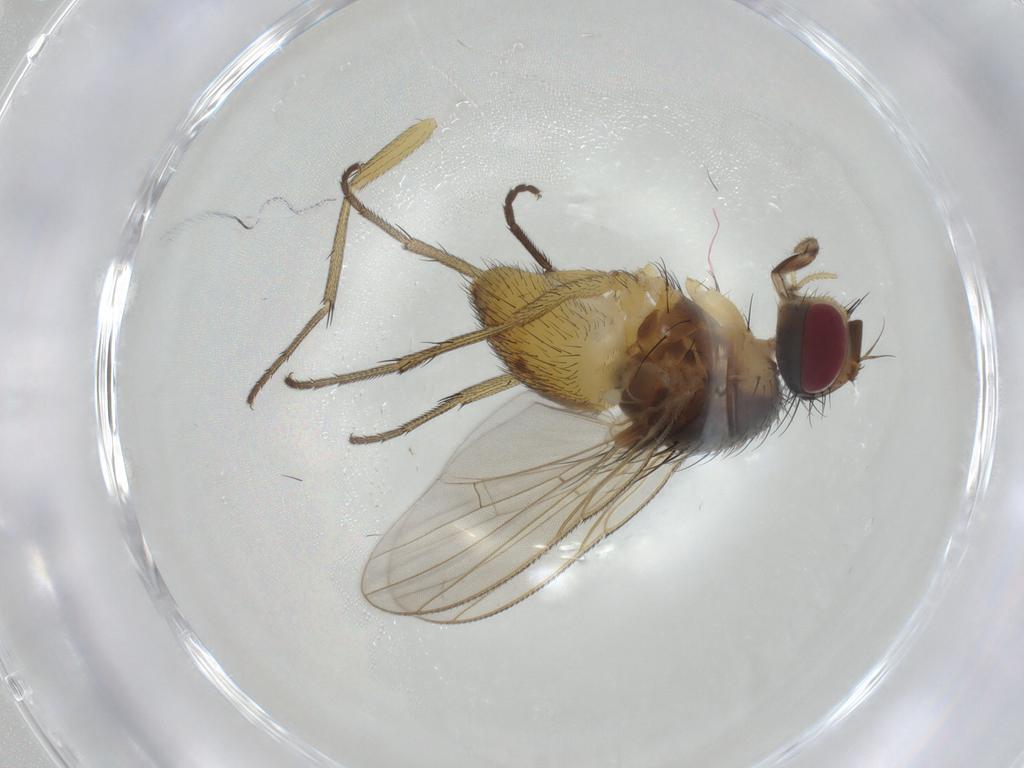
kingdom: Animalia
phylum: Arthropoda
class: Insecta
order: Diptera
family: Muscidae
